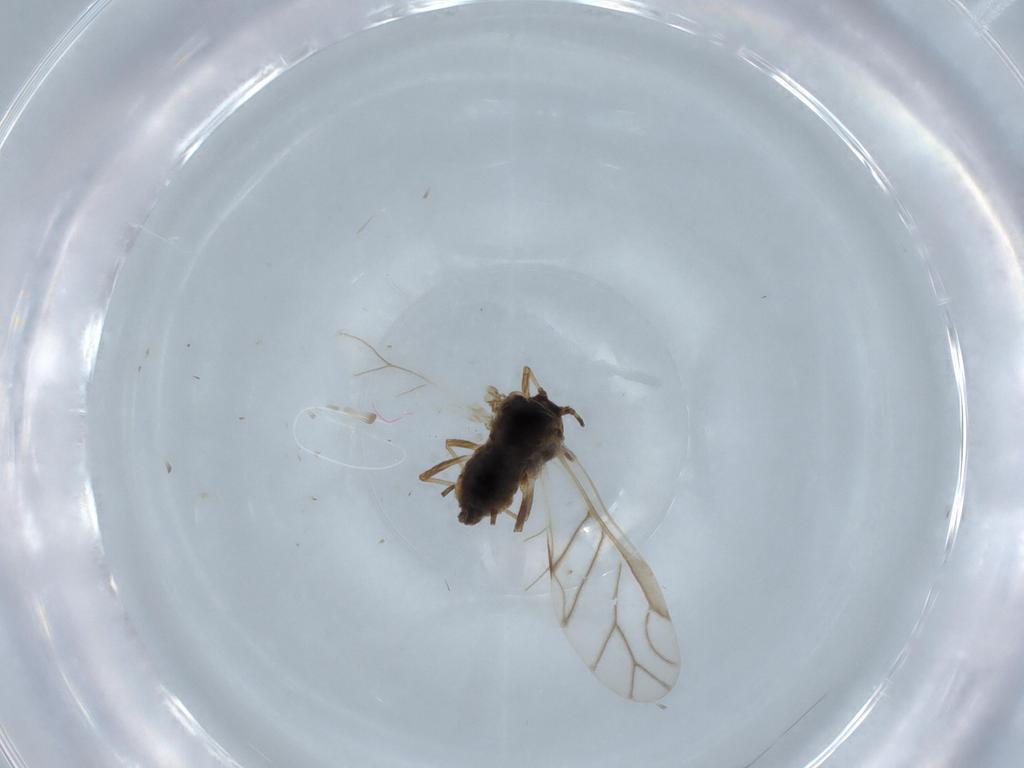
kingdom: Animalia
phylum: Arthropoda
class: Insecta
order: Hemiptera
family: Aphididae
